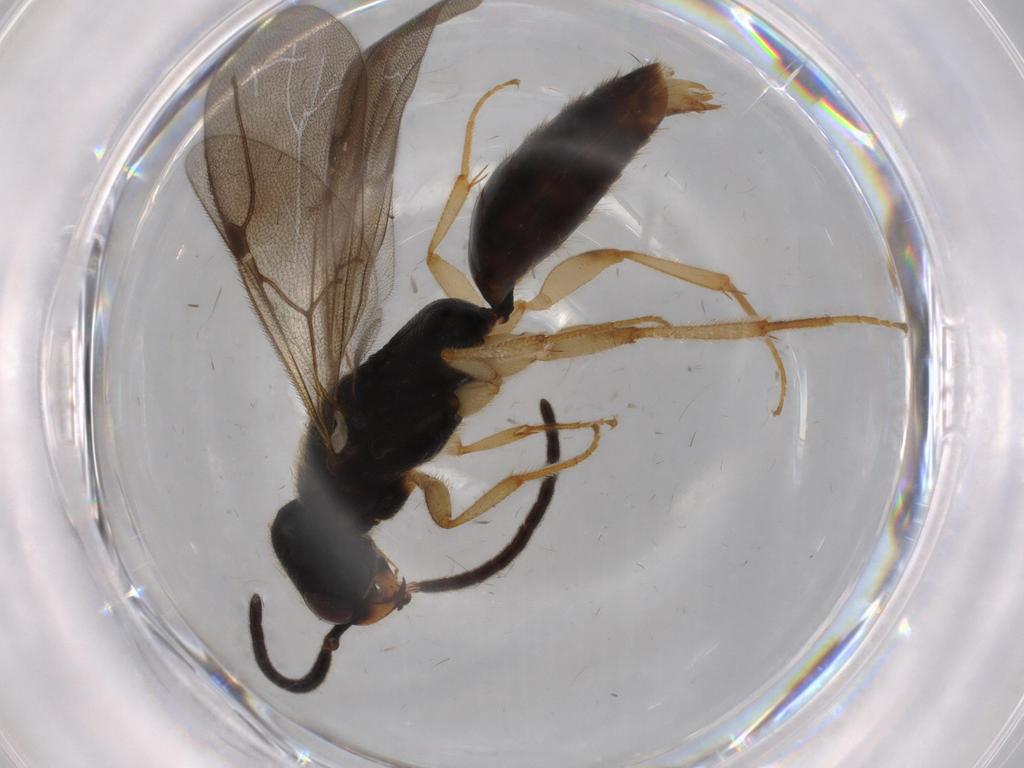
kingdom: Animalia
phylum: Arthropoda
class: Insecta
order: Hymenoptera
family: Bethylidae
